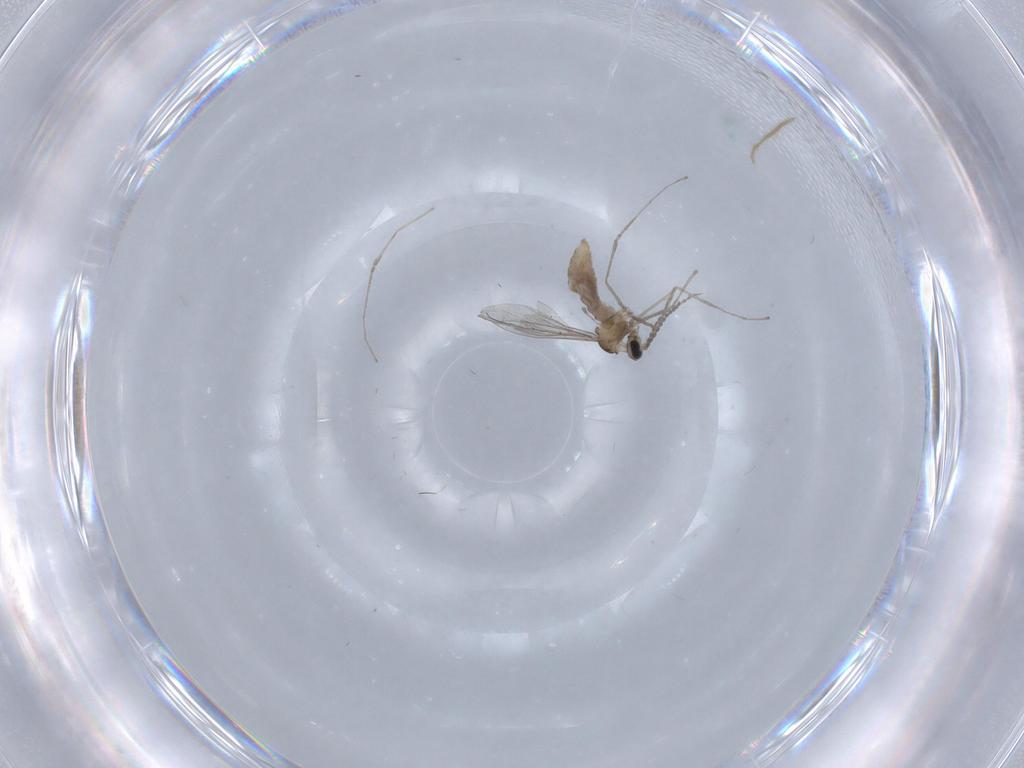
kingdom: Animalia
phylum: Arthropoda
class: Insecta
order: Diptera
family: Cecidomyiidae
